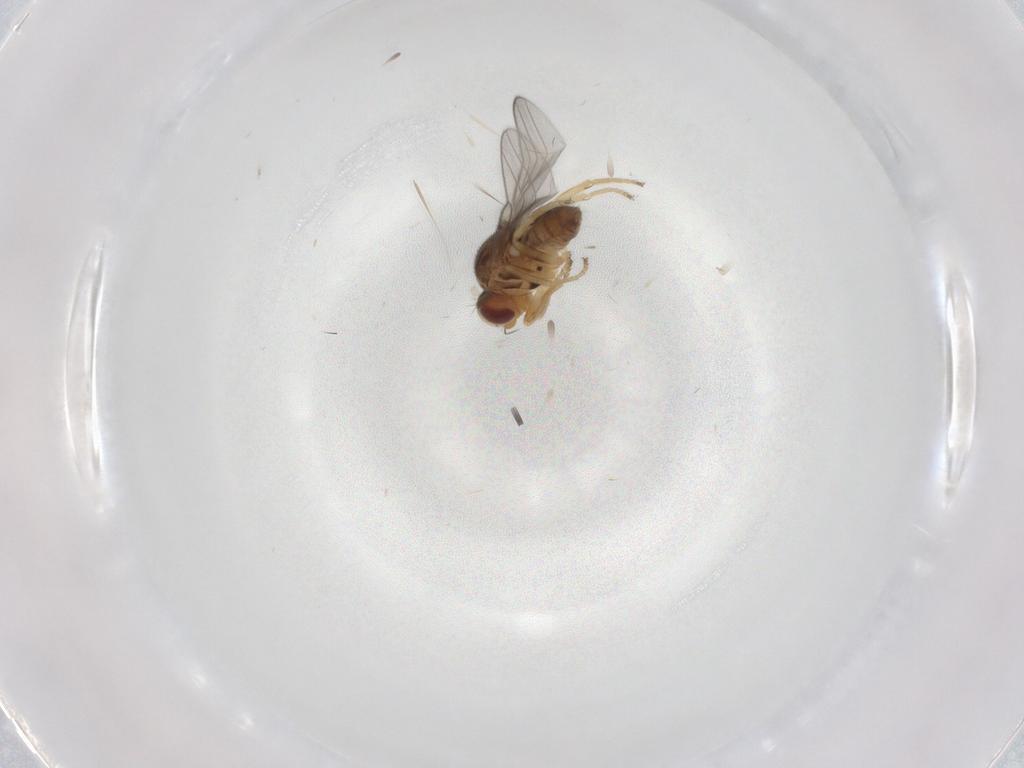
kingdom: Animalia
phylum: Arthropoda
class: Insecta
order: Diptera
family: Chloropidae
